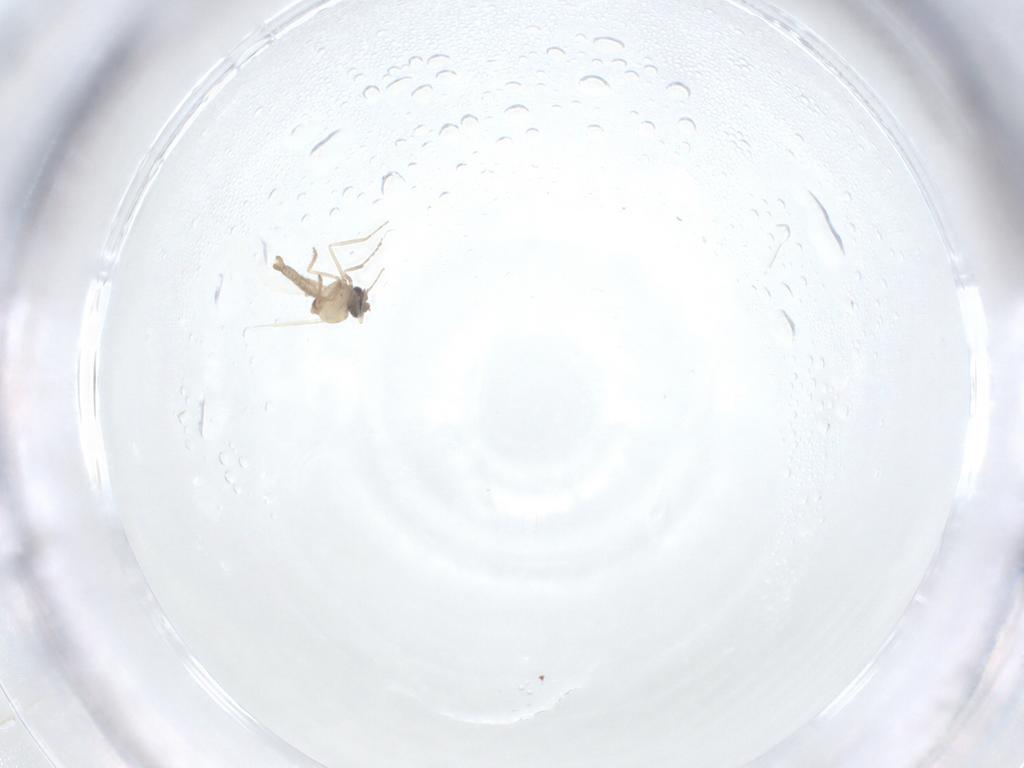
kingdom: Animalia
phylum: Arthropoda
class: Insecta
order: Diptera
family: Ceratopogonidae
